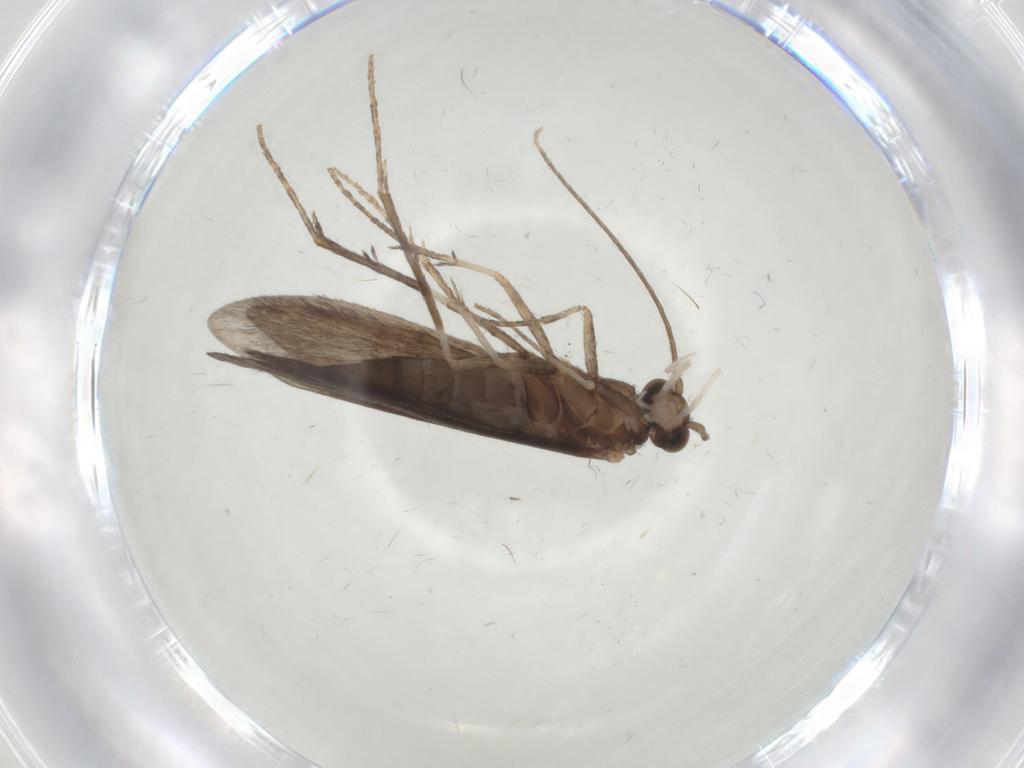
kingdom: Animalia
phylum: Arthropoda
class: Insecta
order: Trichoptera
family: Xiphocentronidae
